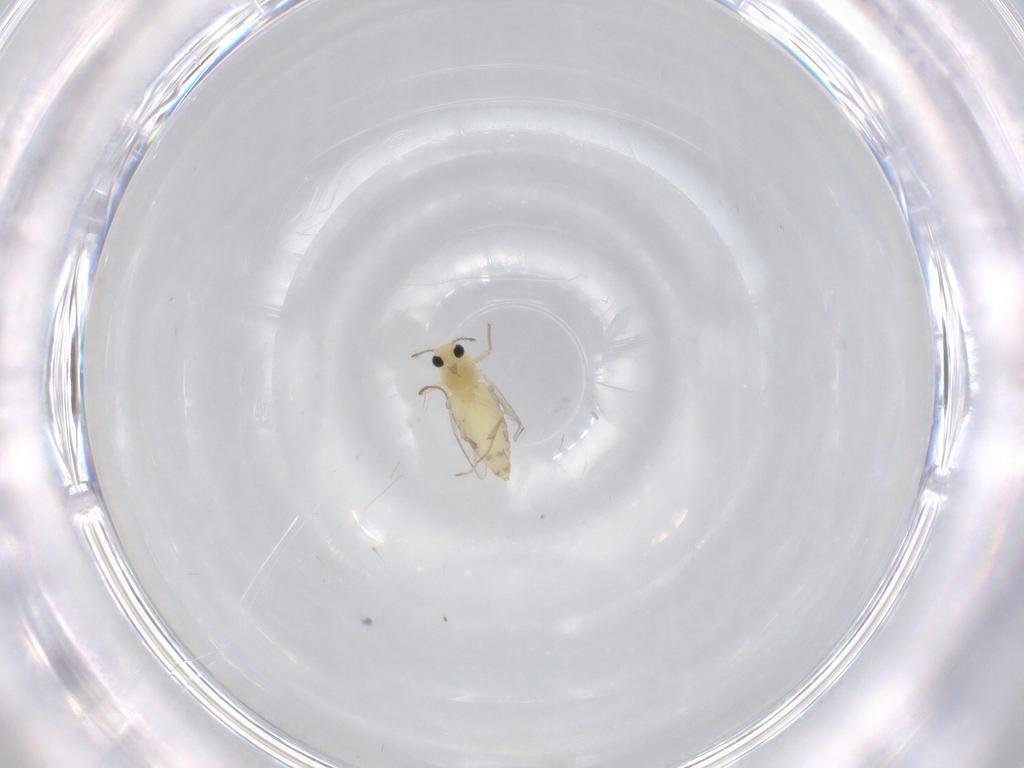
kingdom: Animalia
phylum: Arthropoda
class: Insecta
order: Diptera
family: Chironomidae
